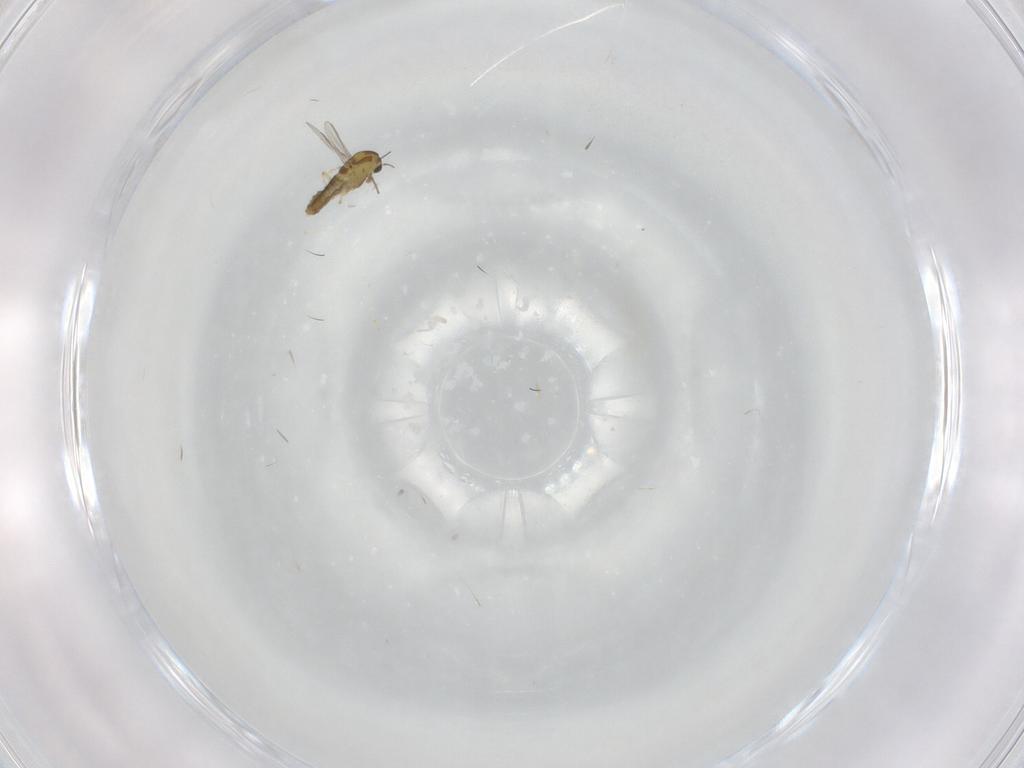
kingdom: Animalia
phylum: Arthropoda
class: Insecta
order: Diptera
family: Chironomidae
